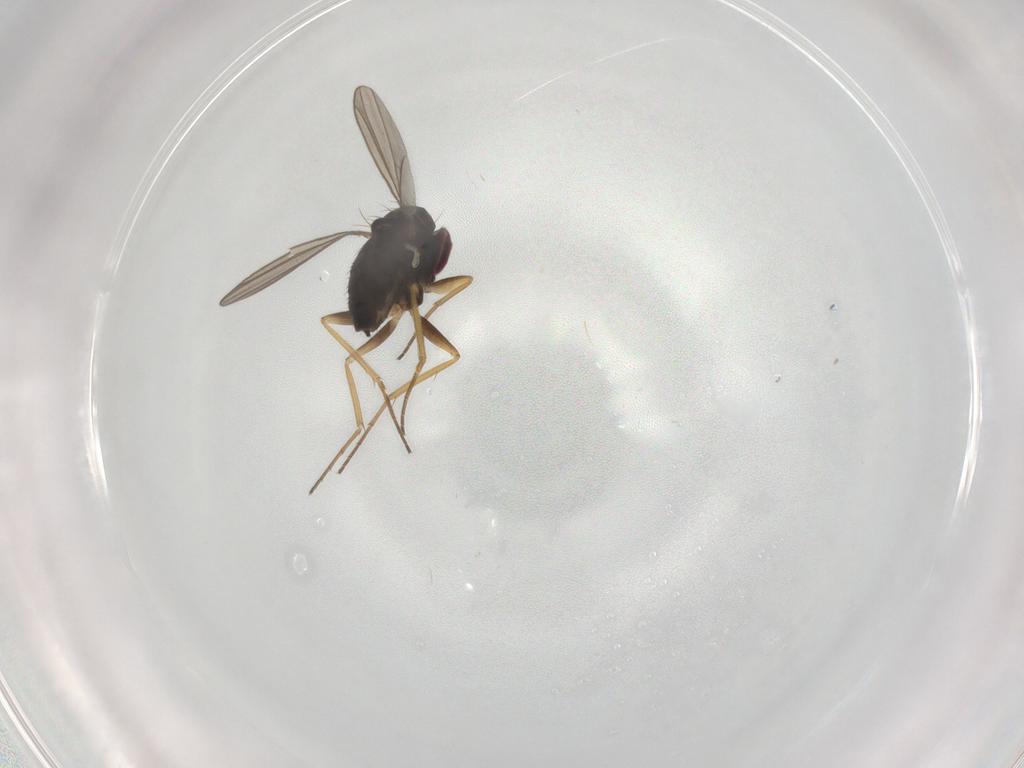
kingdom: Animalia
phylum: Arthropoda
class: Insecta
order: Diptera
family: Dolichopodidae
